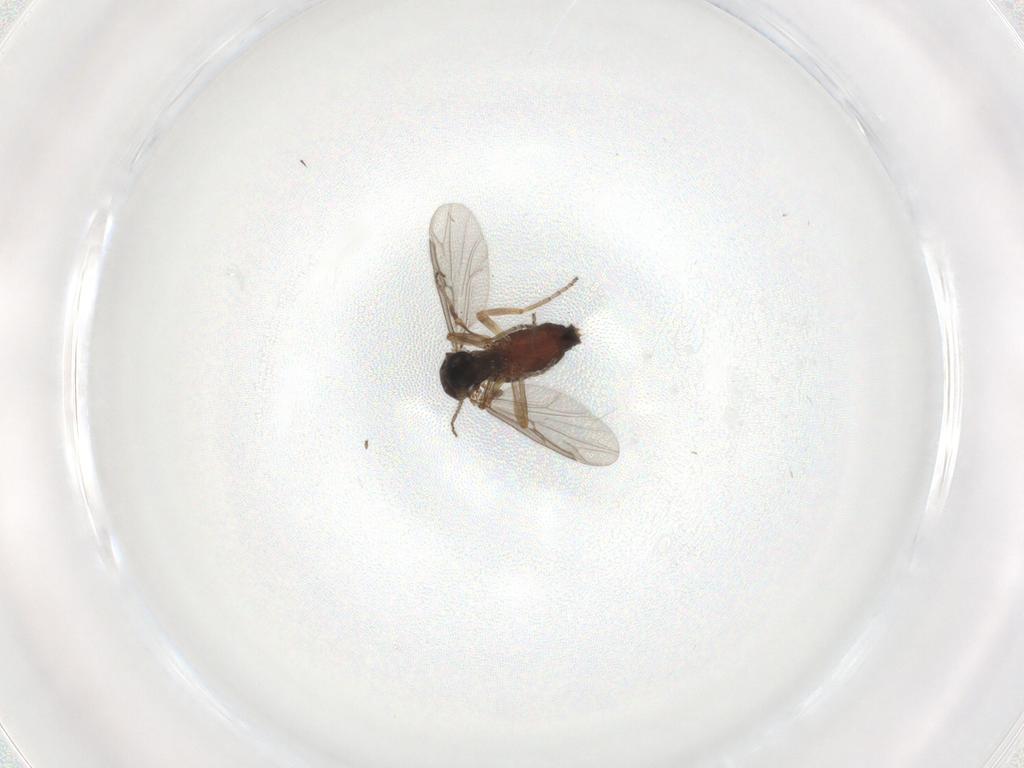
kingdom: Animalia
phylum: Arthropoda
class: Insecta
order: Diptera
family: Ceratopogonidae
